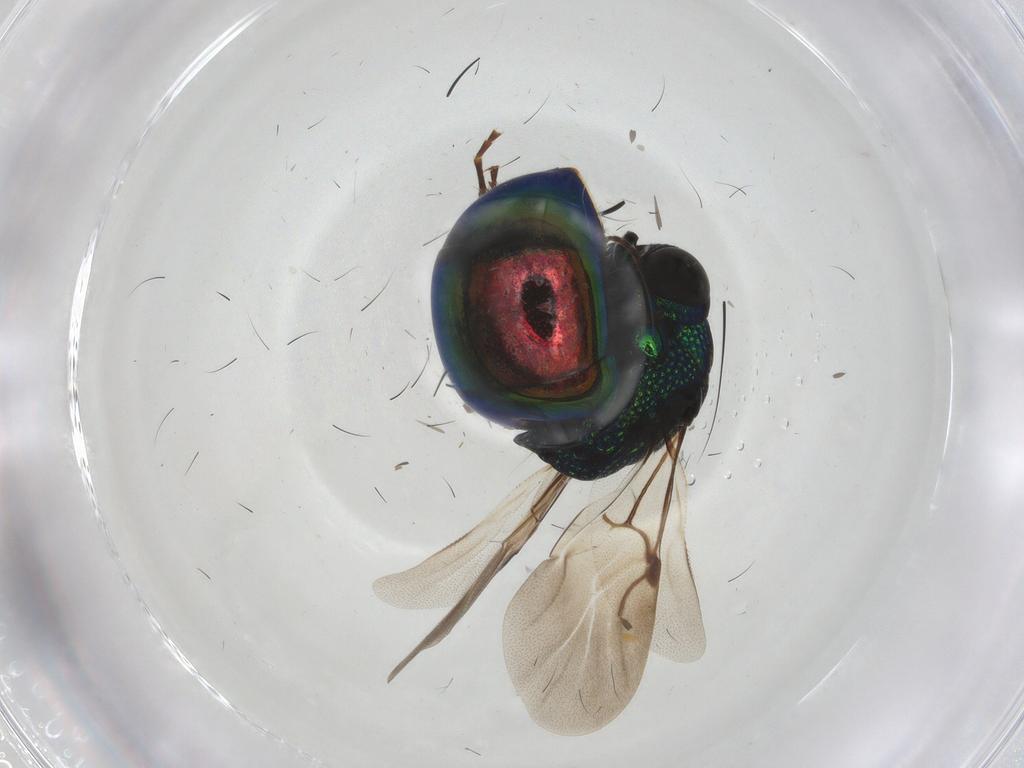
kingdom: Animalia
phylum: Arthropoda
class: Insecta
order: Hymenoptera
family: Ichneumonidae
